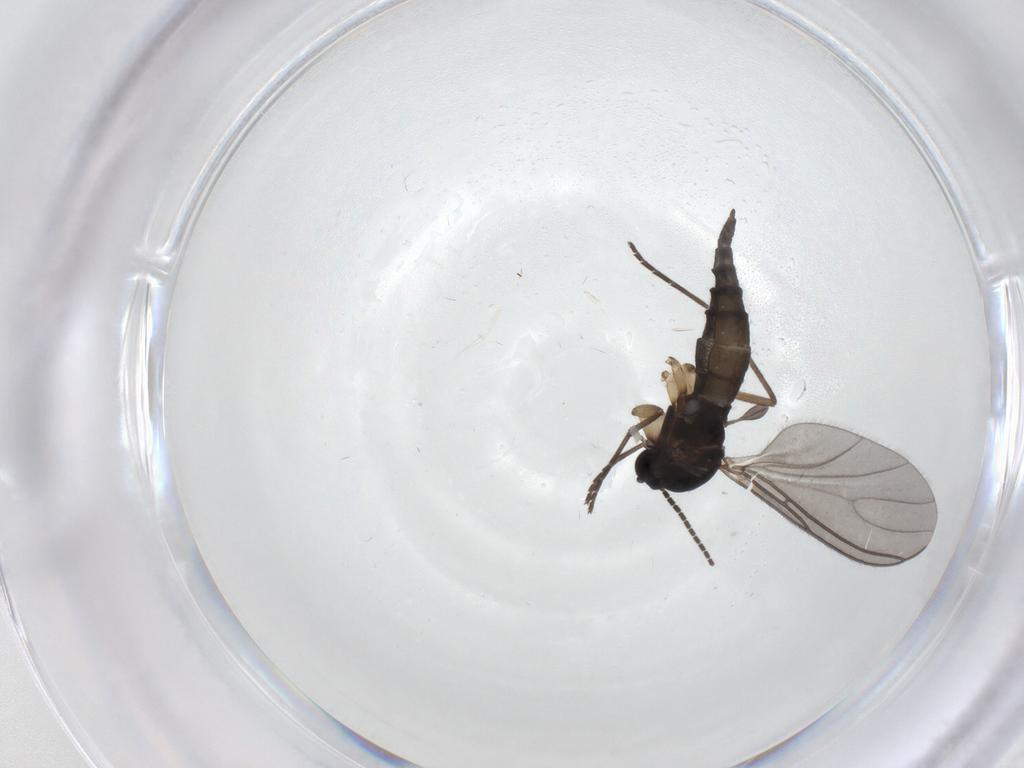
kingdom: Animalia
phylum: Arthropoda
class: Insecta
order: Diptera
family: Sciaridae
